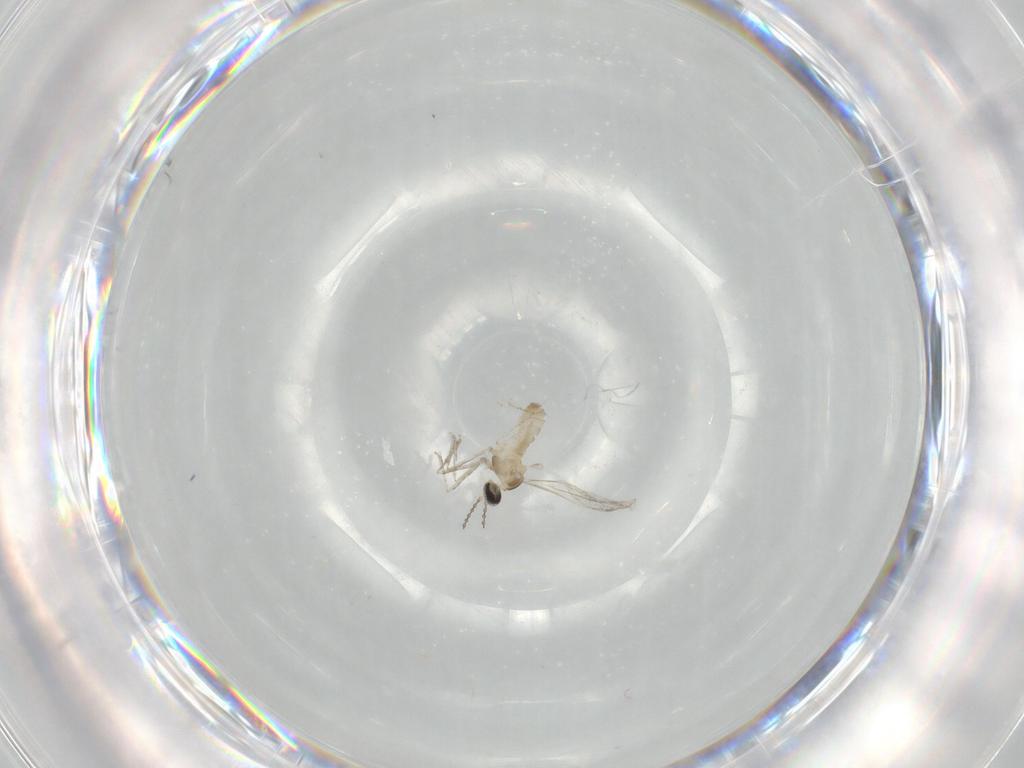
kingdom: Animalia
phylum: Arthropoda
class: Insecta
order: Diptera
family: Cecidomyiidae
